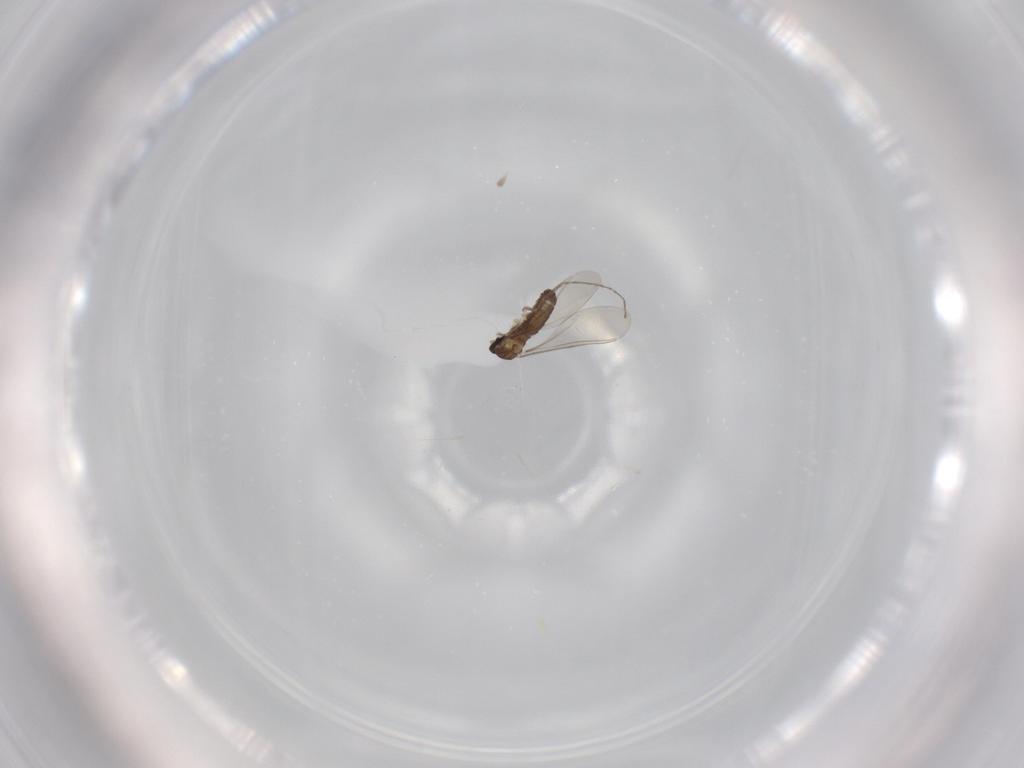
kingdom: Animalia
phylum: Arthropoda
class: Insecta
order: Diptera
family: Cecidomyiidae
